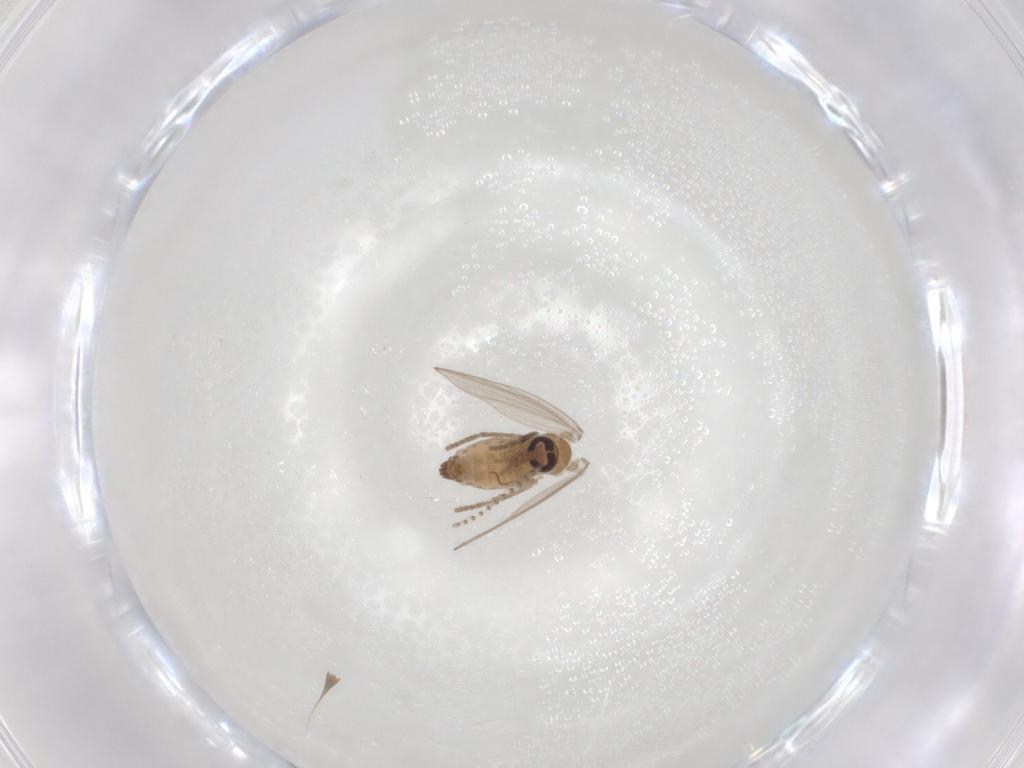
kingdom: Animalia
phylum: Arthropoda
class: Insecta
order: Diptera
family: Psychodidae
